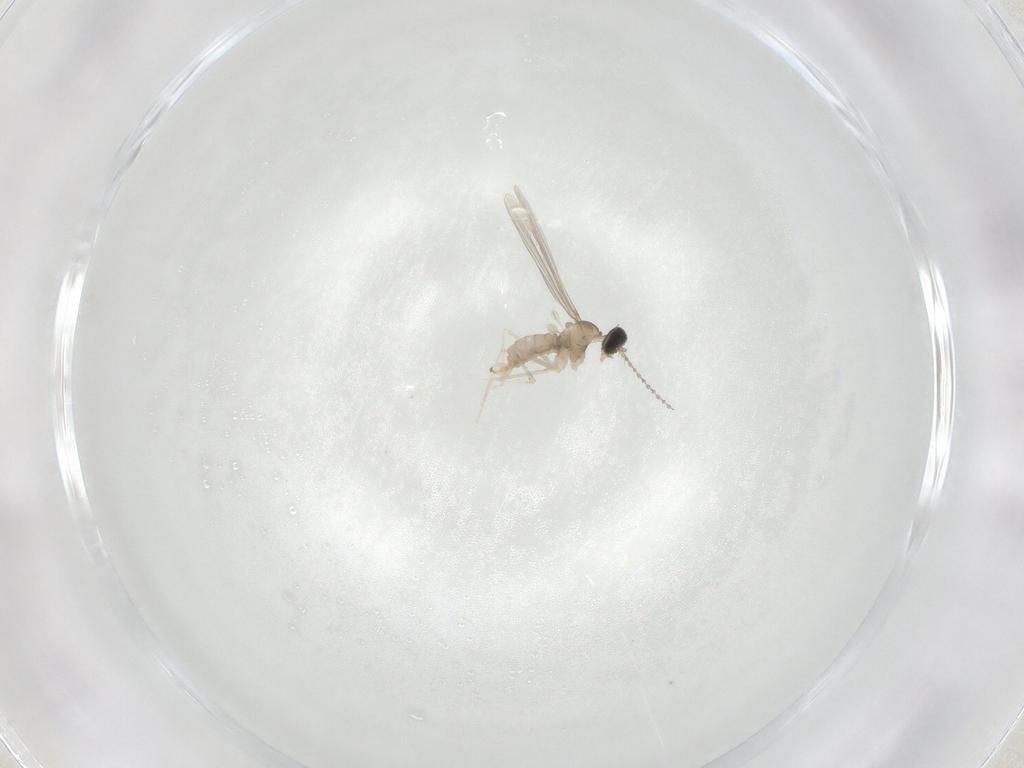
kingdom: Animalia
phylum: Arthropoda
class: Insecta
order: Diptera
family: Cecidomyiidae
